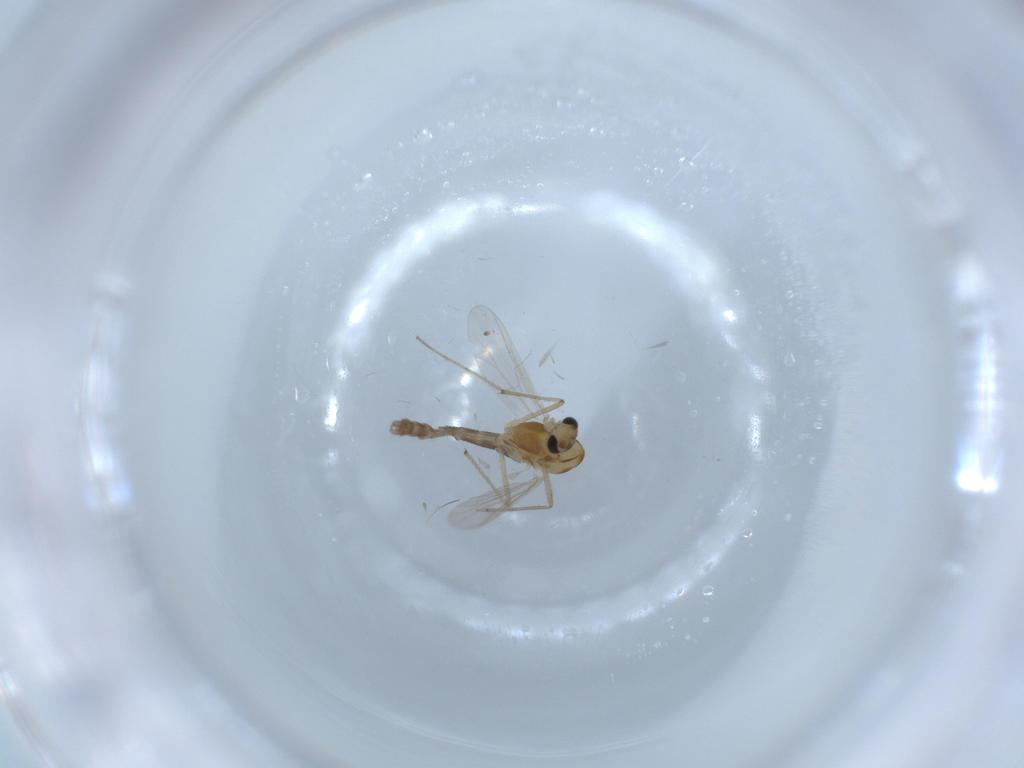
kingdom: Animalia
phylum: Arthropoda
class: Insecta
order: Diptera
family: Chironomidae
